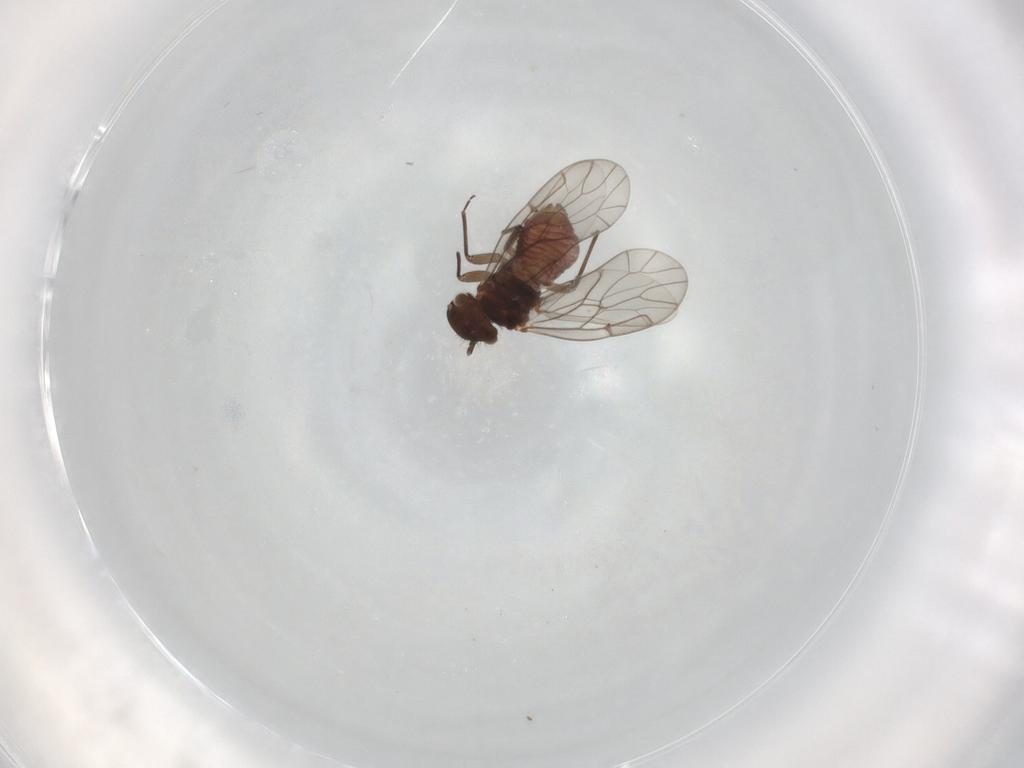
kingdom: Animalia
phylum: Arthropoda
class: Insecta
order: Psocodea
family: Ectopsocidae
